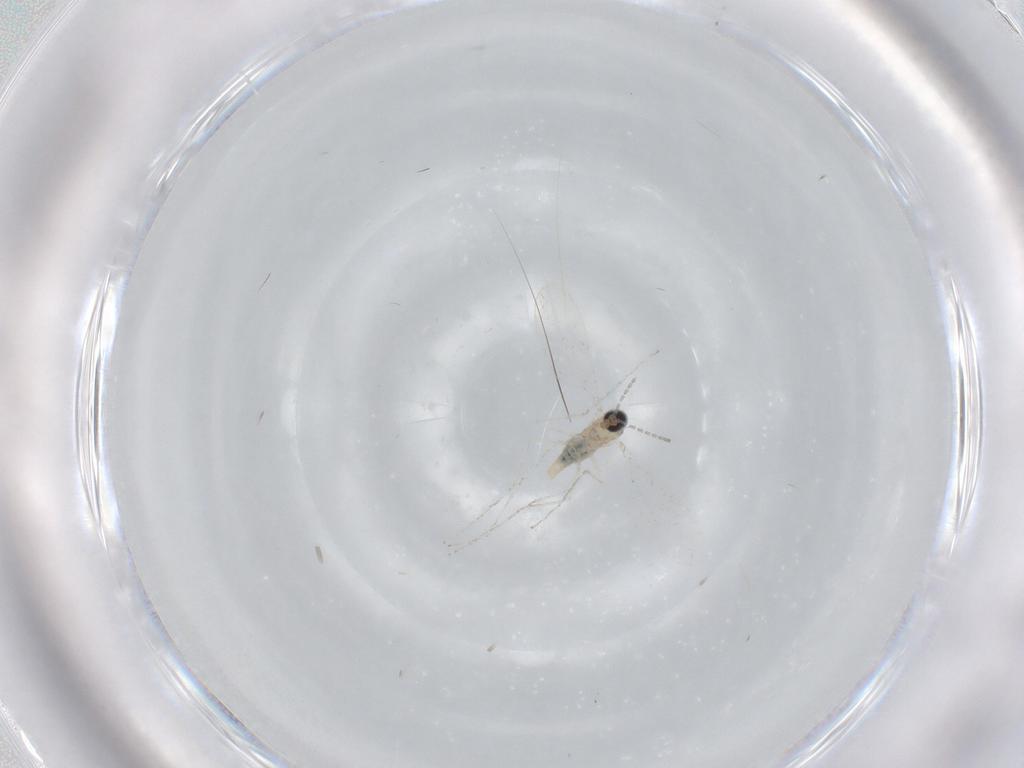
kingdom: Animalia
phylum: Arthropoda
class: Insecta
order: Diptera
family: Cecidomyiidae
